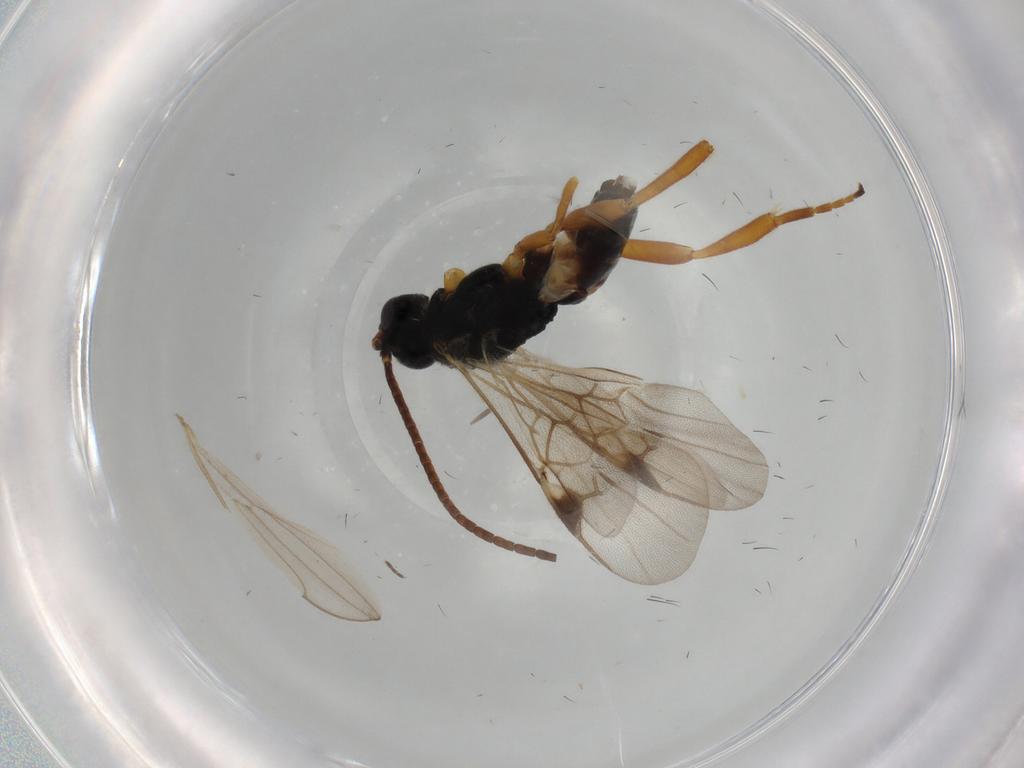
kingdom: Animalia
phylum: Arthropoda
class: Insecta
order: Hymenoptera
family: Braconidae
